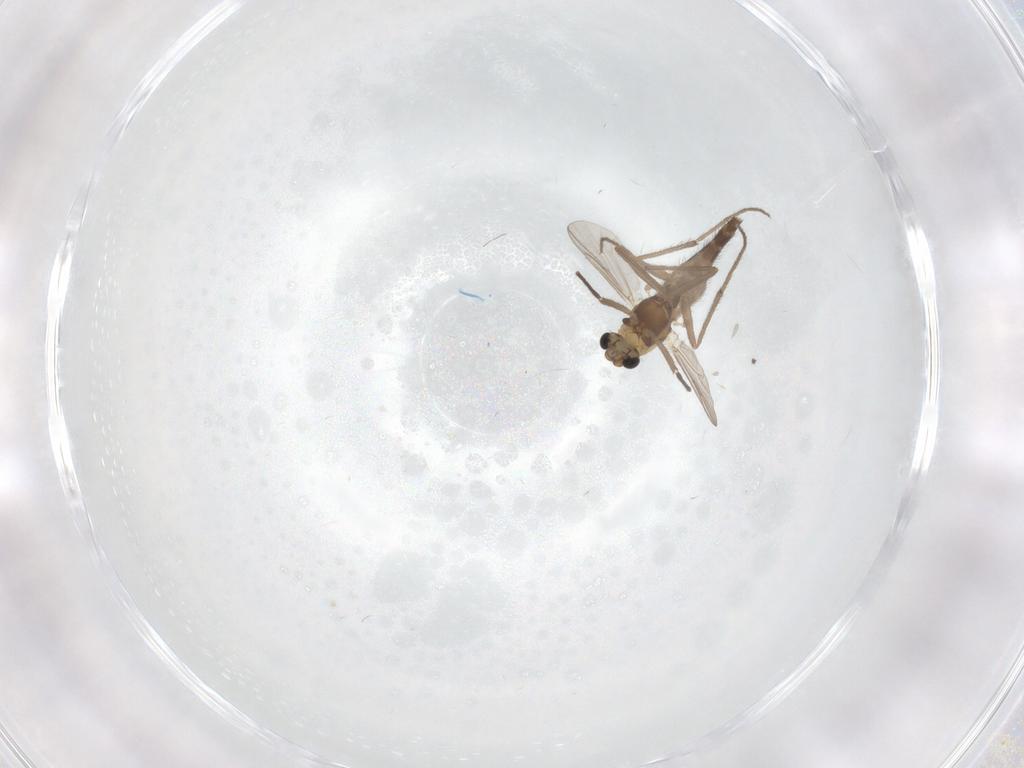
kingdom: Animalia
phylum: Arthropoda
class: Insecta
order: Diptera
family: Chironomidae
